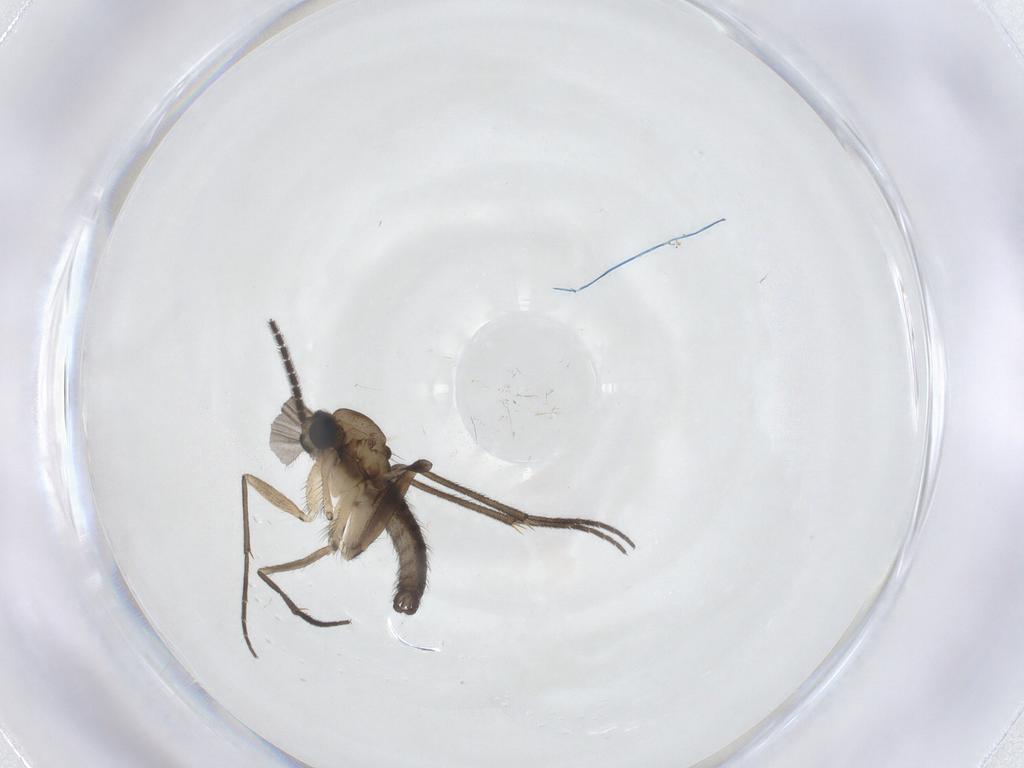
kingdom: Animalia
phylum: Arthropoda
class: Insecta
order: Diptera
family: Sciaridae
